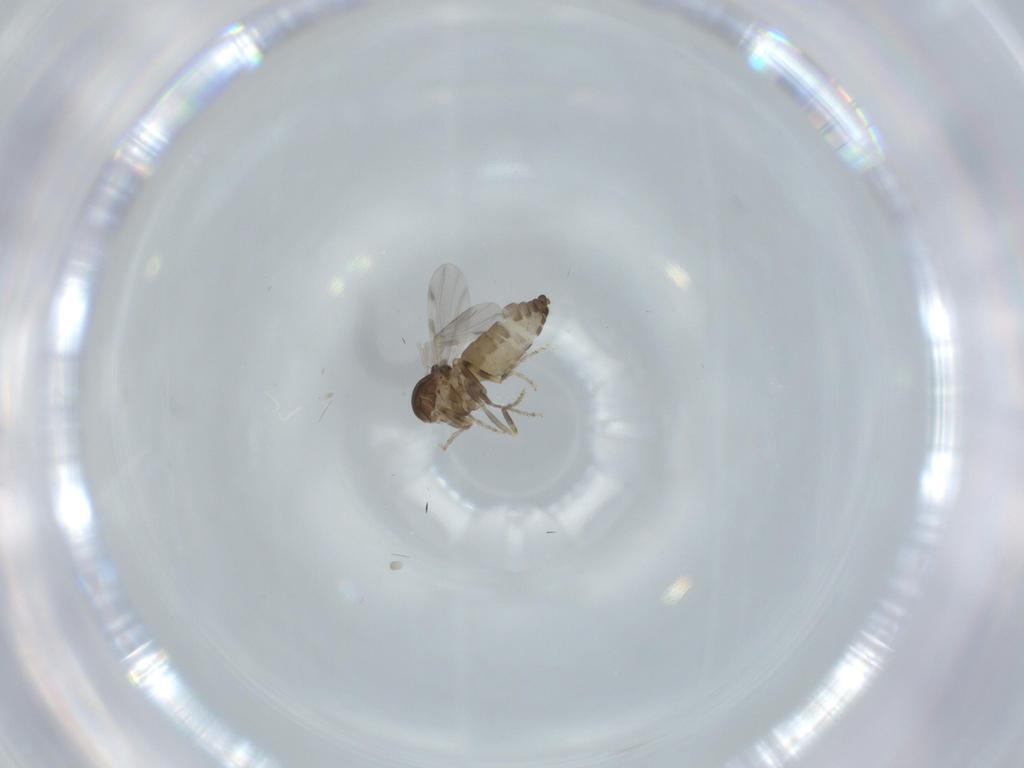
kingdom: Animalia
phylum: Arthropoda
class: Insecta
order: Diptera
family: Ceratopogonidae
